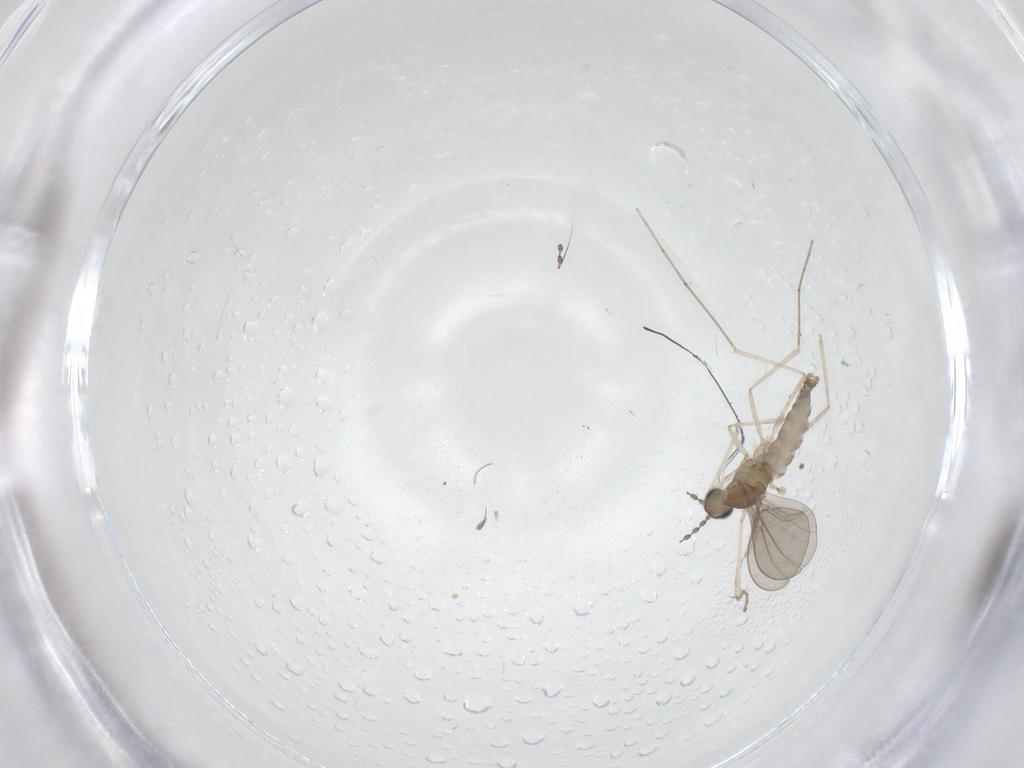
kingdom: Animalia
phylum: Arthropoda
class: Insecta
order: Diptera
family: Cecidomyiidae
